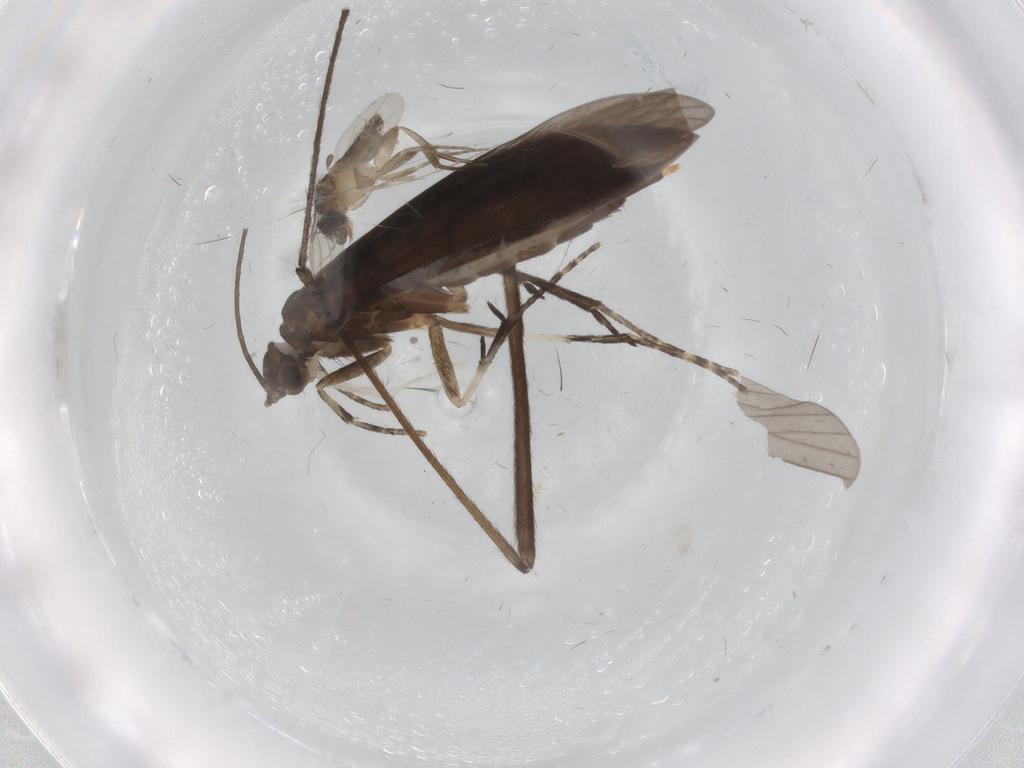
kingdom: Animalia
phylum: Arthropoda
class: Insecta
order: Trichoptera
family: Xiphocentronidae
